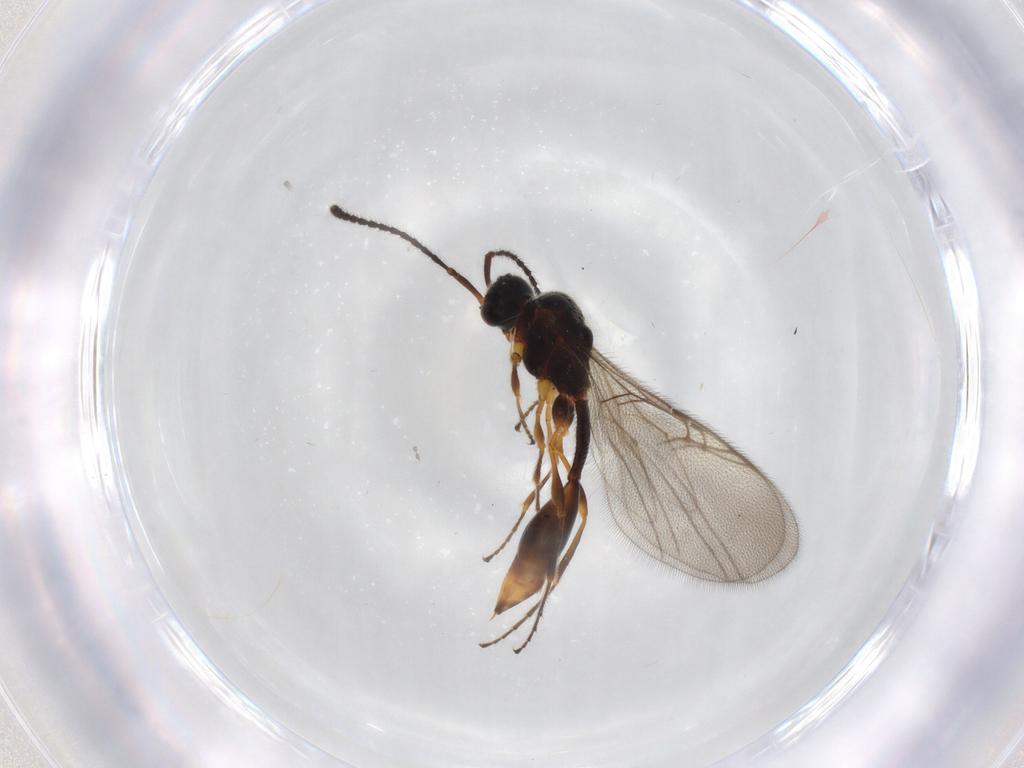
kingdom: Animalia
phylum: Arthropoda
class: Insecta
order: Hymenoptera
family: Diapriidae
